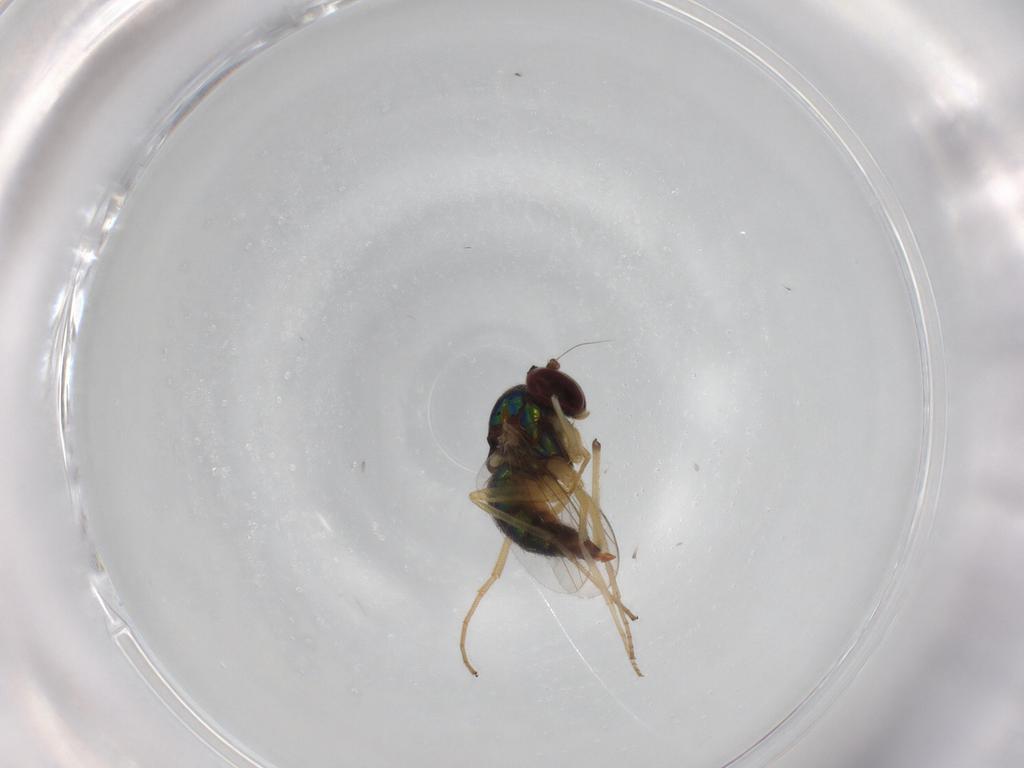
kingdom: Animalia
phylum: Arthropoda
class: Insecta
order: Diptera
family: Dolichopodidae
